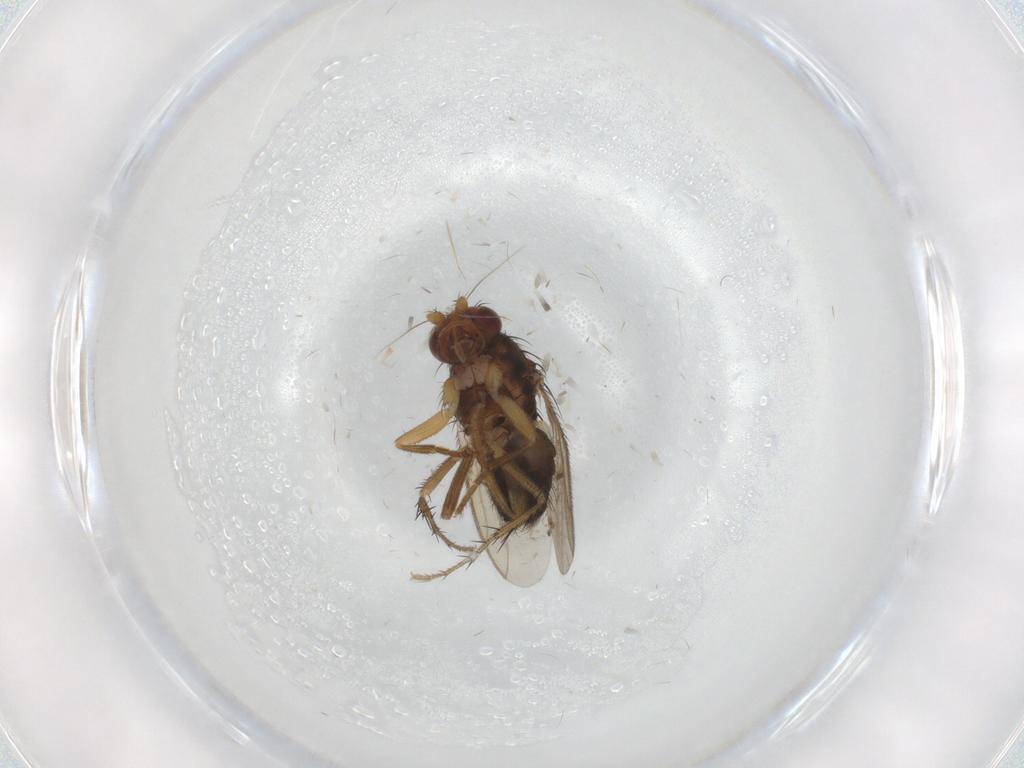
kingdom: Animalia
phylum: Arthropoda
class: Insecta
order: Diptera
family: Sphaeroceridae
